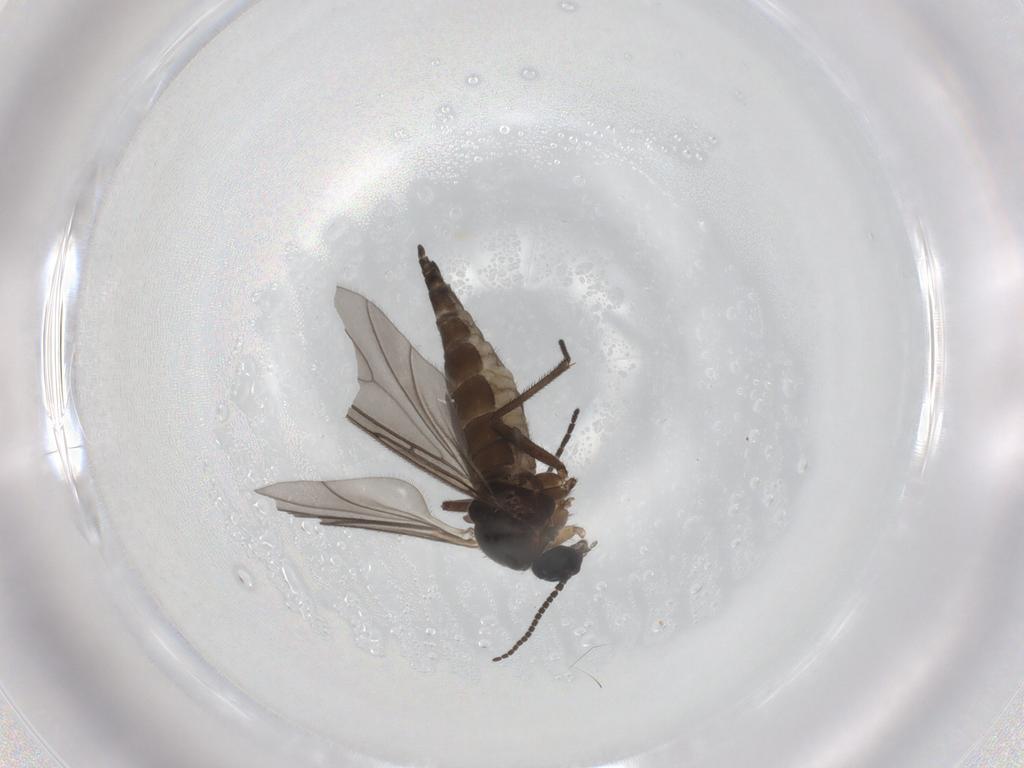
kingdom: Animalia
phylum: Arthropoda
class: Insecta
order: Diptera
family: Sciaridae
